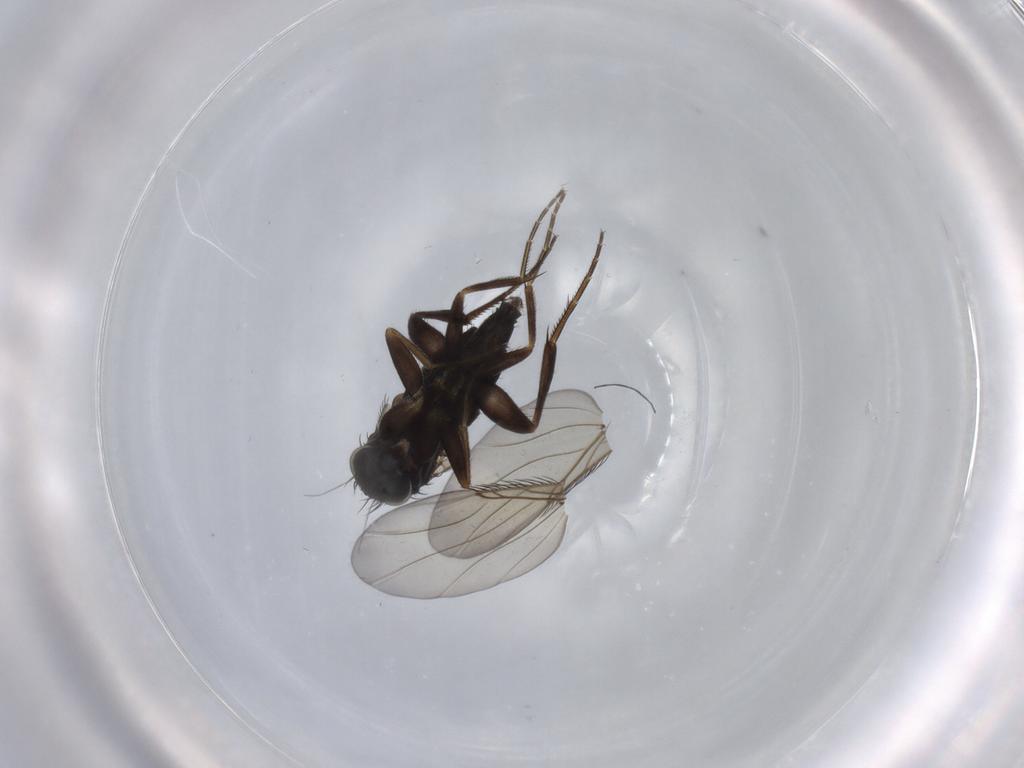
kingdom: Animalia
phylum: Arthropoda
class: Insecta
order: Diptera
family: Phoridae
